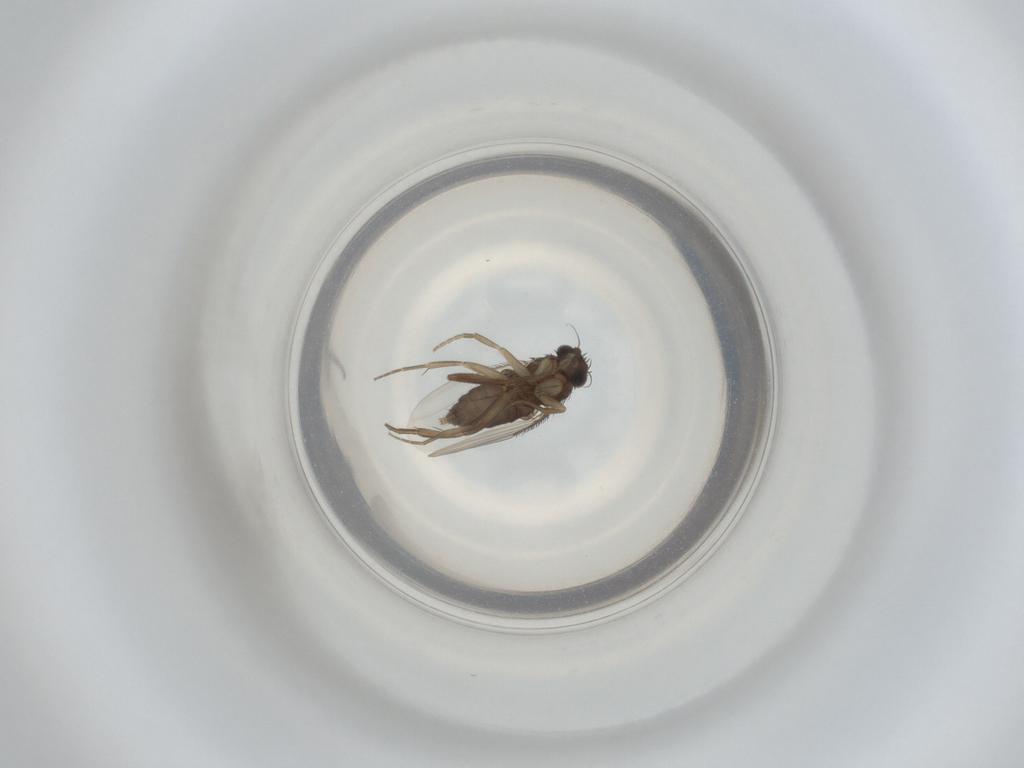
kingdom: Animalia
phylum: Arthropoda
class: Insecta
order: Diptera
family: Phoridae
